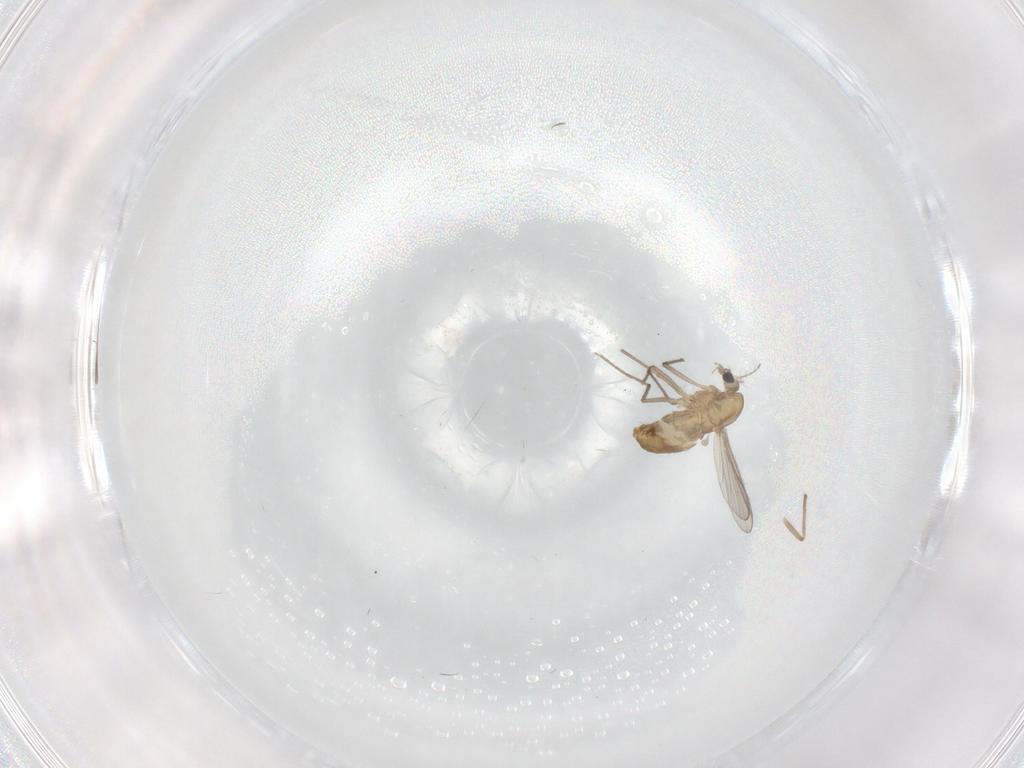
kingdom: Animalia
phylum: Arthropoda
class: Insecta
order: Diptera
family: Chironomidae
